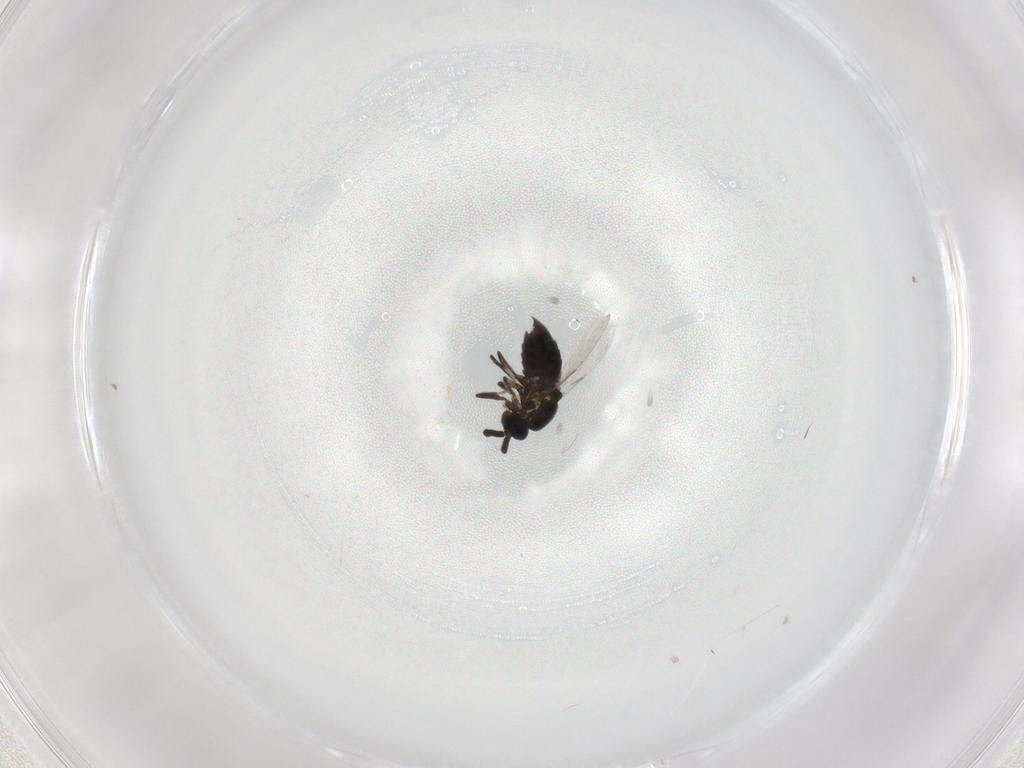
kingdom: Animalia
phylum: Arthropoda
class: Insecta
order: Diptera
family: Scatopsidae
